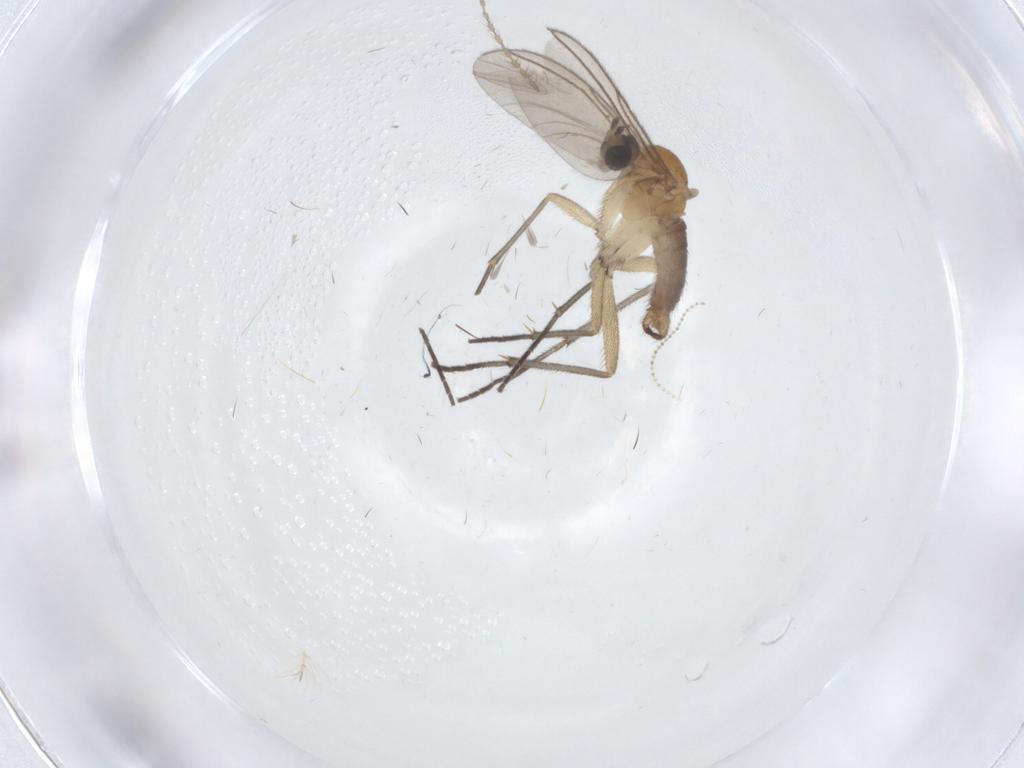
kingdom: Animalia
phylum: Arthropoda
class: Insecta
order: Diptera
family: Sciaridae
